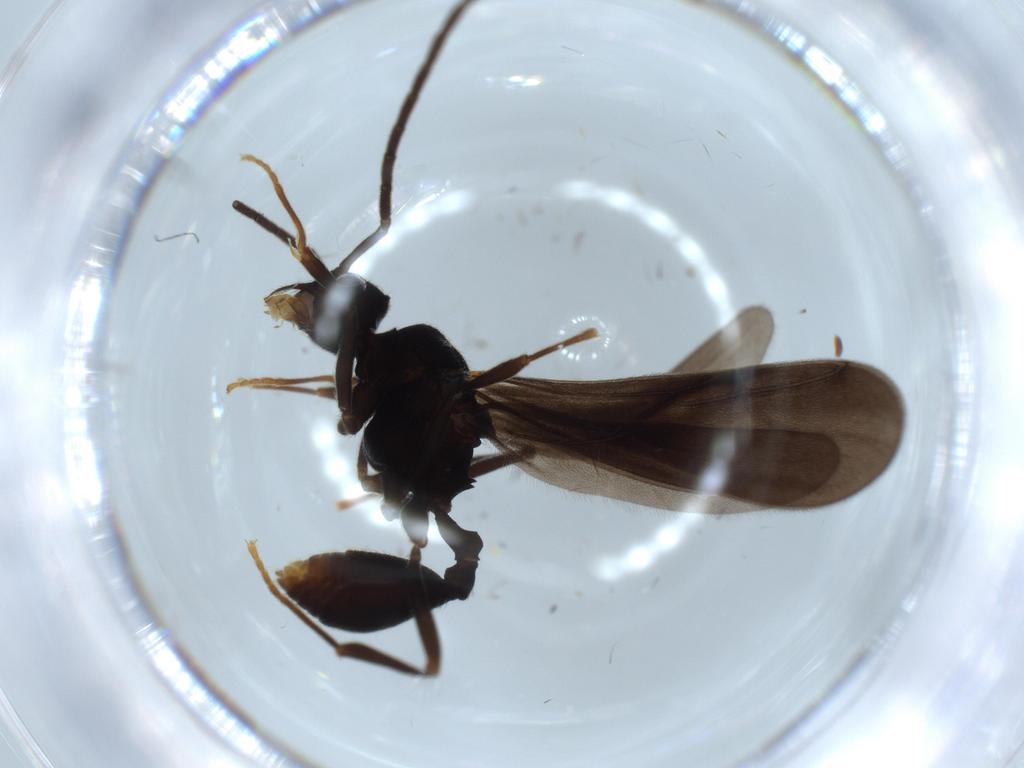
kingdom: Animalia
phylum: Arthropoda
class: Insecta
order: Hymenoptera
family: Formicidae
